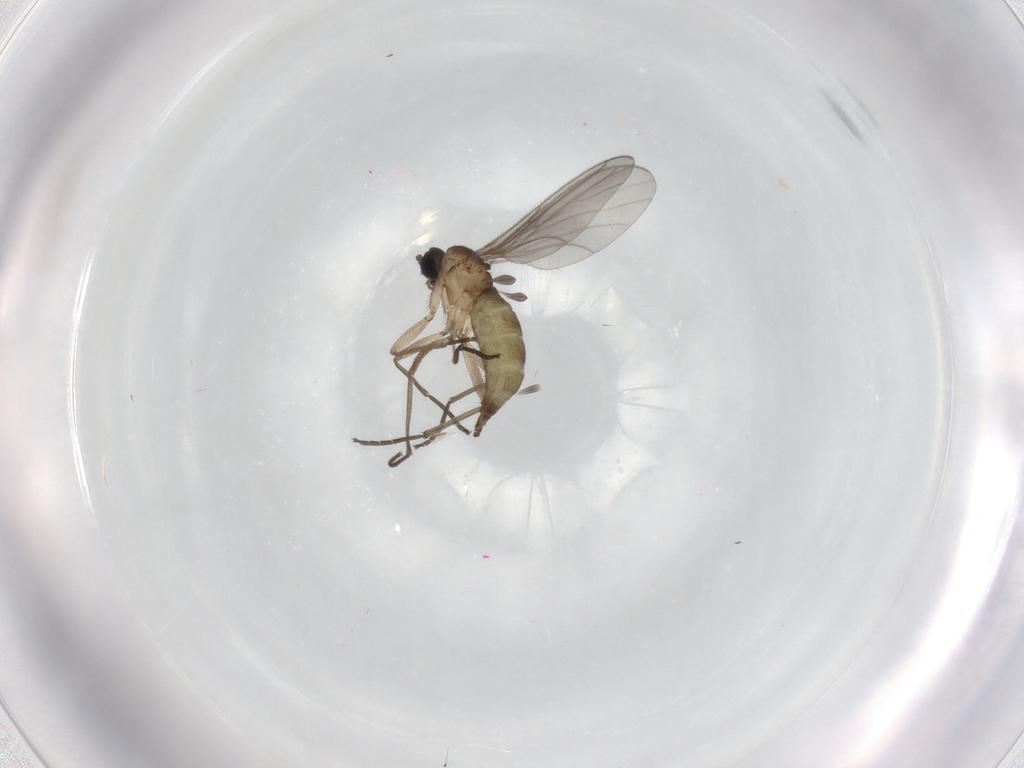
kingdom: Animalia
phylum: Arthropoda
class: Insecta
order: Diptera
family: Sciaridae
